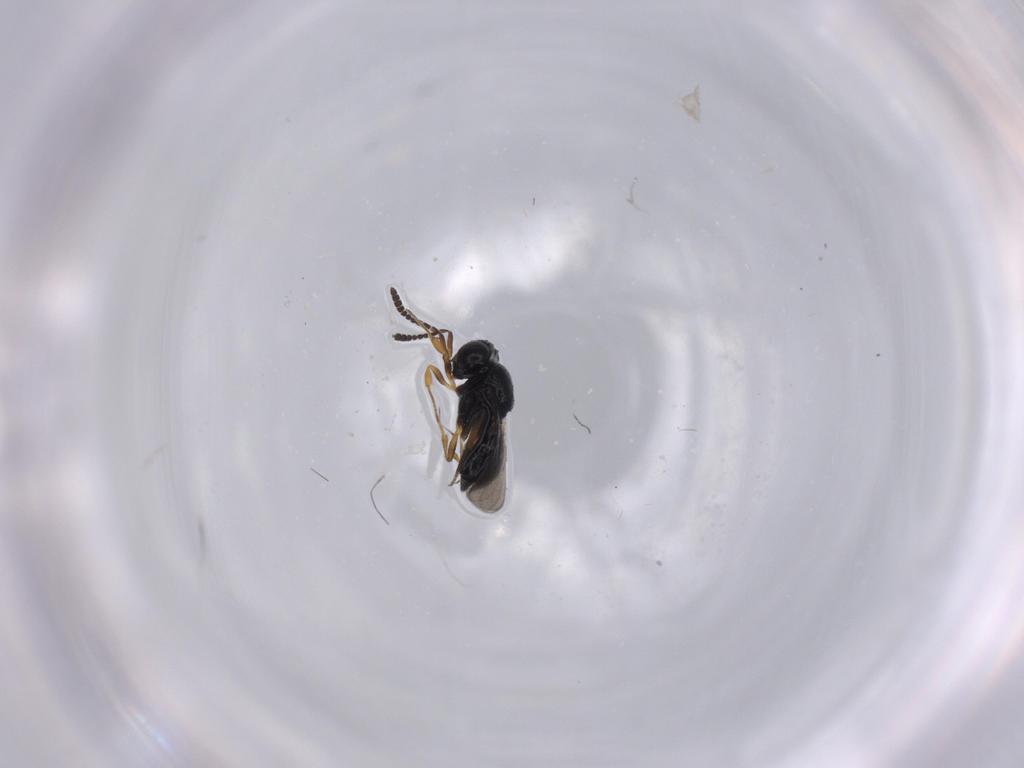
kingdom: Animalia
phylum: Arthropoda
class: Insecta
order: Hymenoptera
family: Scelionidae
